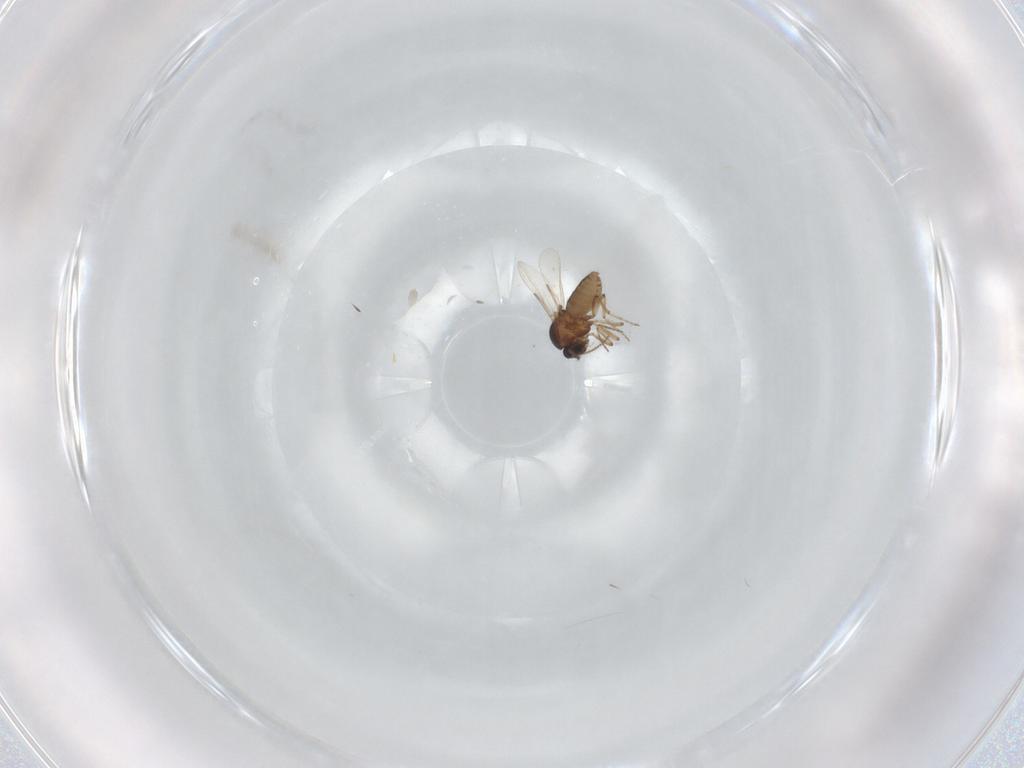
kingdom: Animalia
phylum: Arthropoda
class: Insecta
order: Diptera
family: Ceratopogonidae
